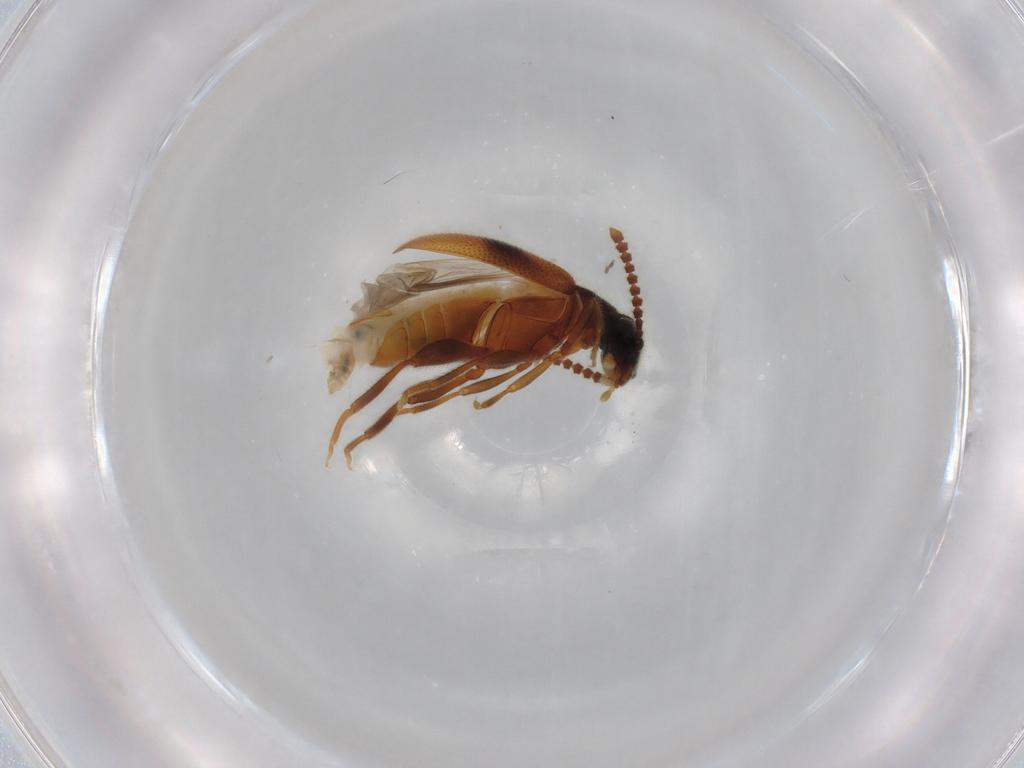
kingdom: Animalia
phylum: Arthropoda
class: Insecta
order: Coleoptera
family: Aderidae
